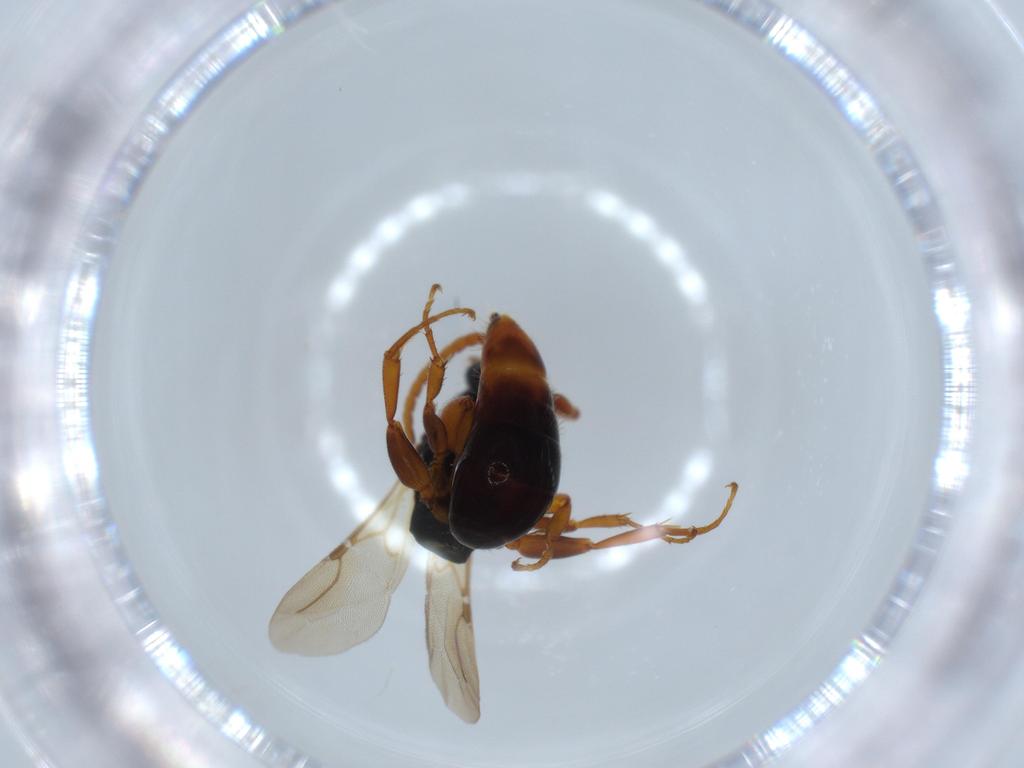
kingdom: Animalia
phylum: Arthropoda
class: Insecta
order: Hymenoptera
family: Bethylidae
